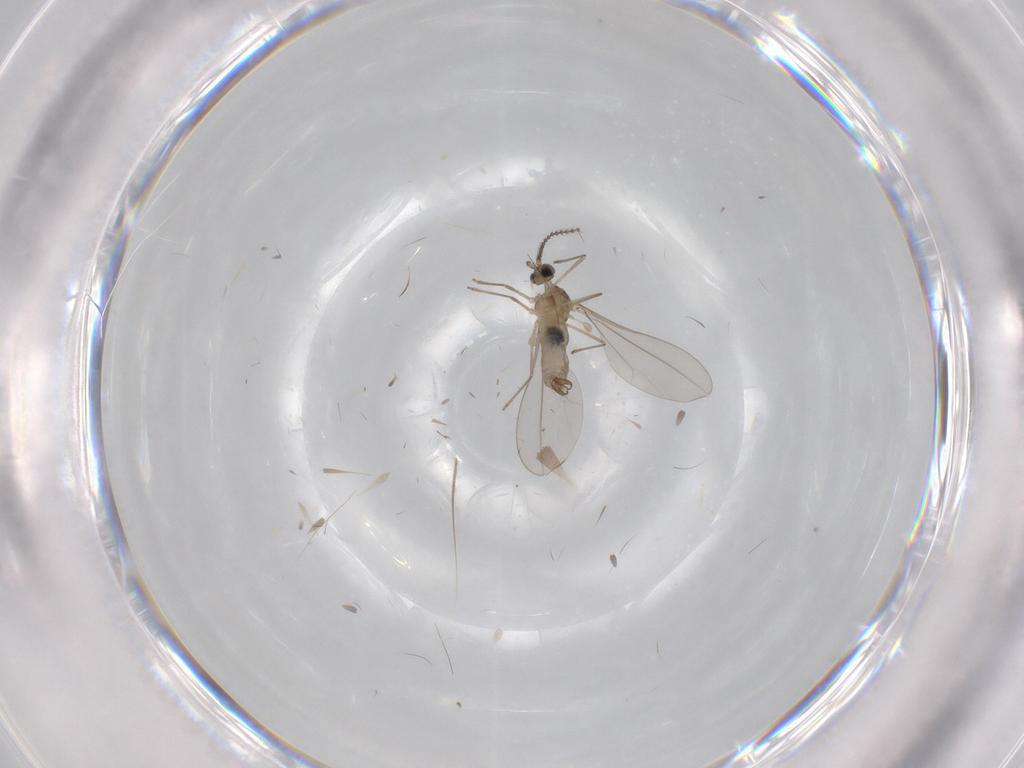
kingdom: Animalia
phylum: Arthropoda
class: Insecta
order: Diptera
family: Cecidomyiidae
